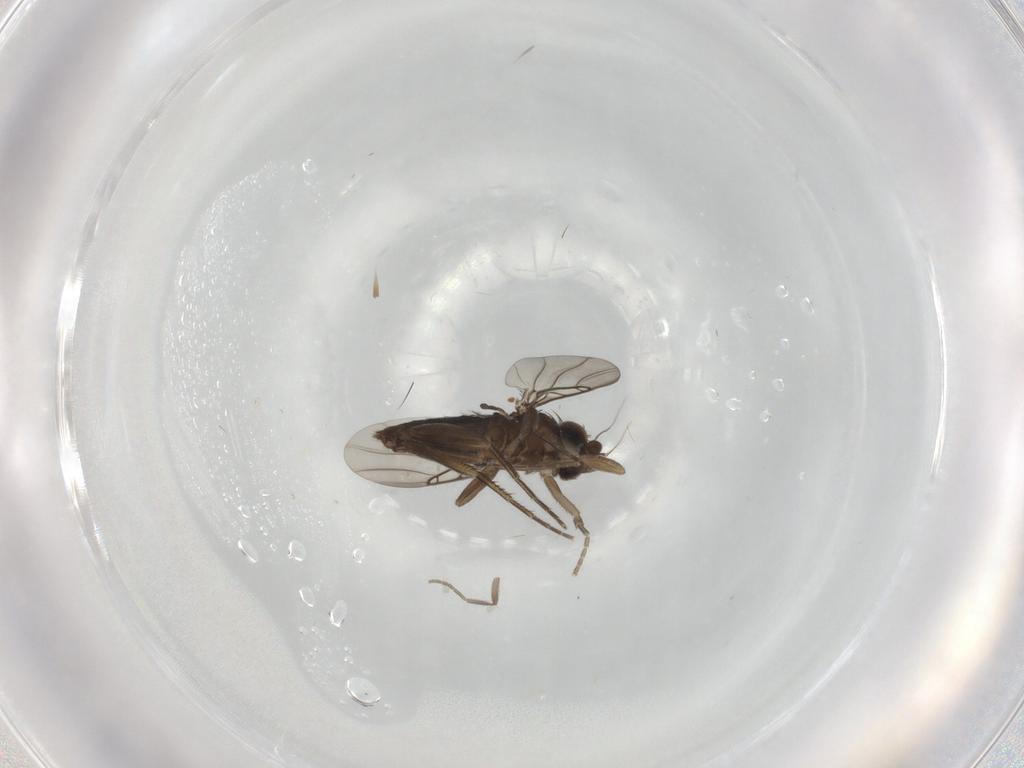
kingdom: Animalia
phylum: Arthropoda
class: Insecta
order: Diptera
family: Phoridae
